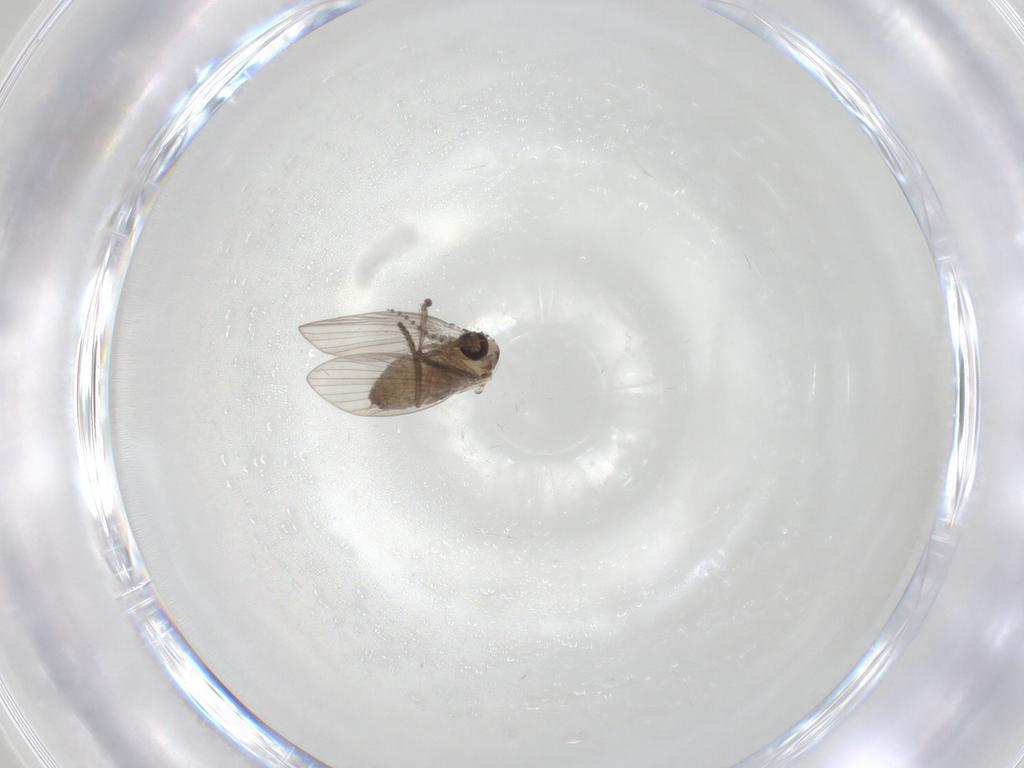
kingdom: Animalia
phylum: Arthropoda
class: Insecta
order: Diptera
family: Psychodidae
